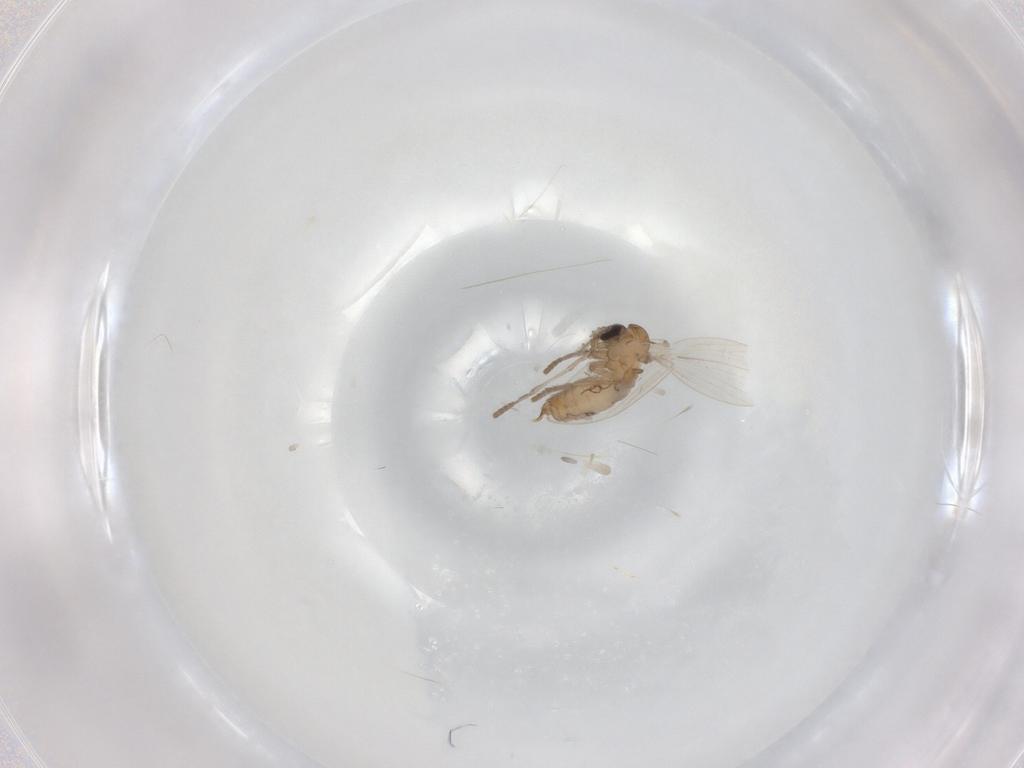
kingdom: Animalia
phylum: Arthropoda
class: Insecta
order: Diptera
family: Psychodidae
